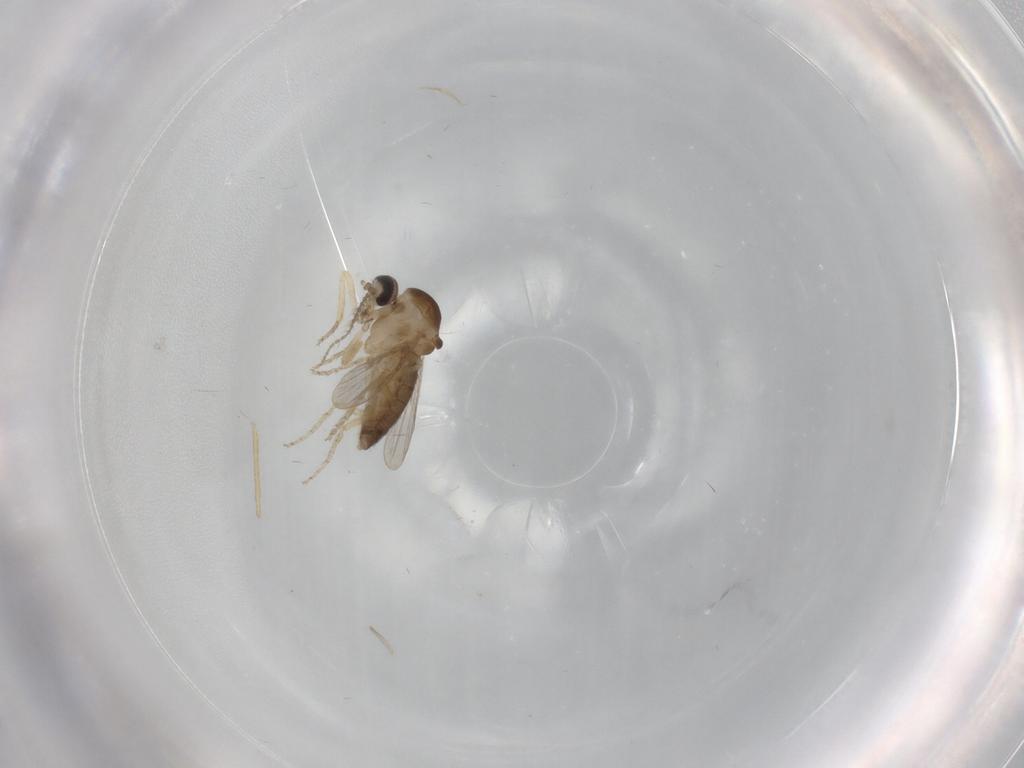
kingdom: Animalia
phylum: Arthropoda
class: Insecta
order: Diptera
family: Ceratopogonidae
